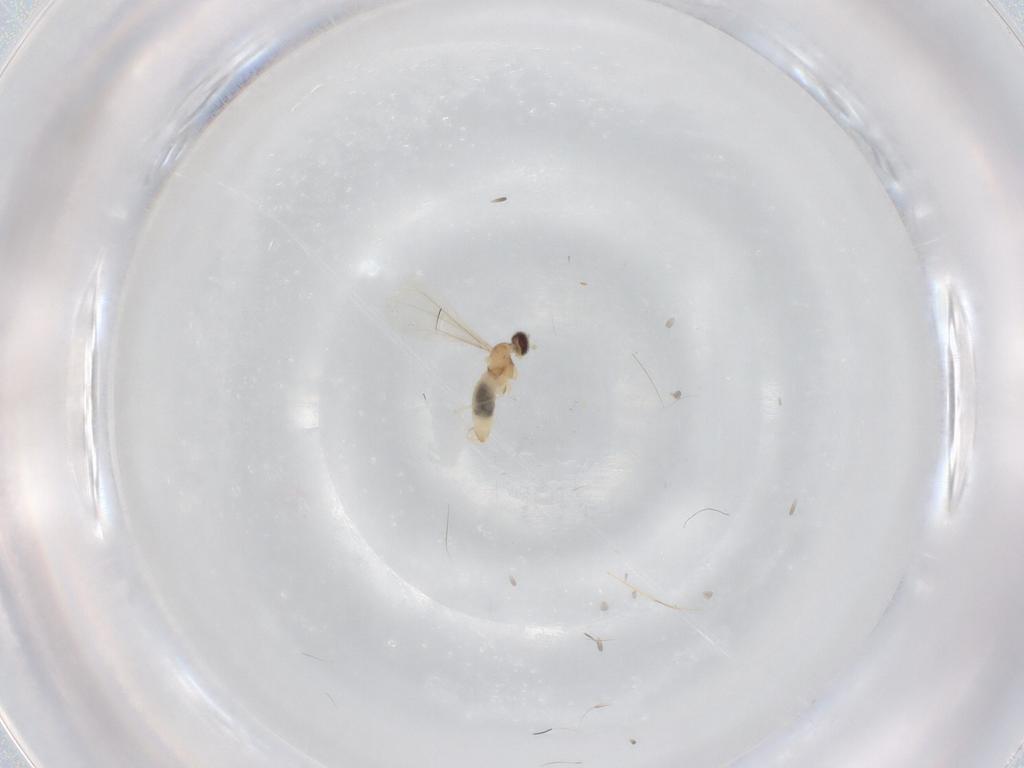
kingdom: Animalia
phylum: Arthropoda
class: Insecta
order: Diptera
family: Cecidomyiidae
